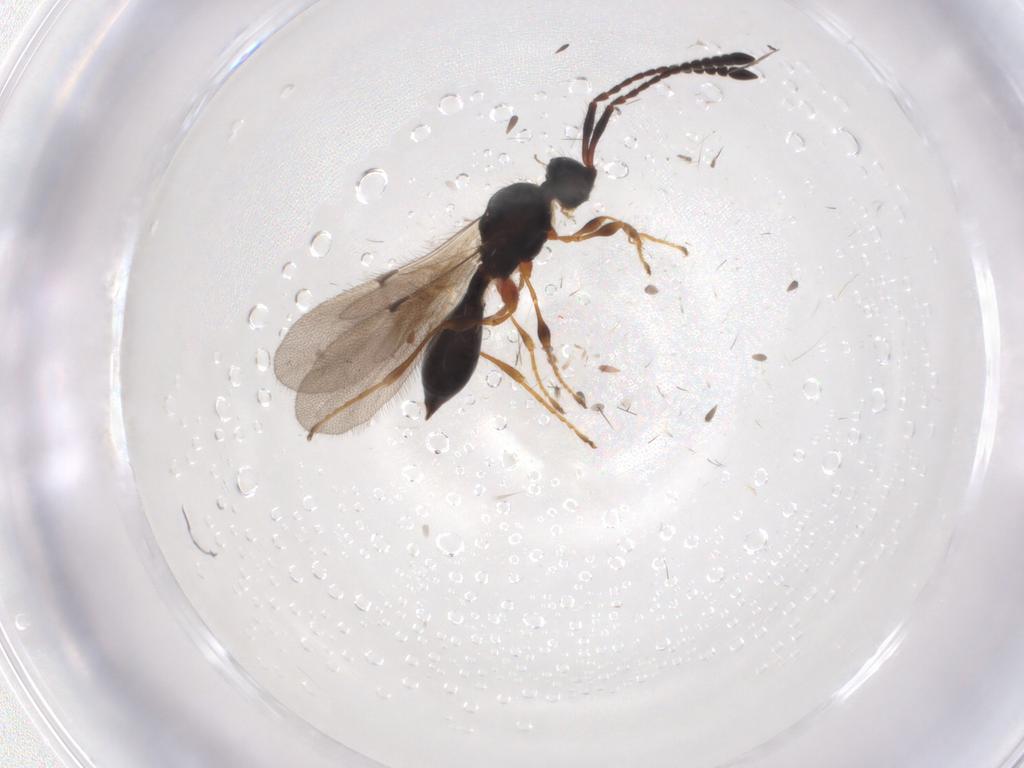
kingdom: Animalia
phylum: Arthropoda
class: Insecta
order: Hymenoptera
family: Diapriidae
